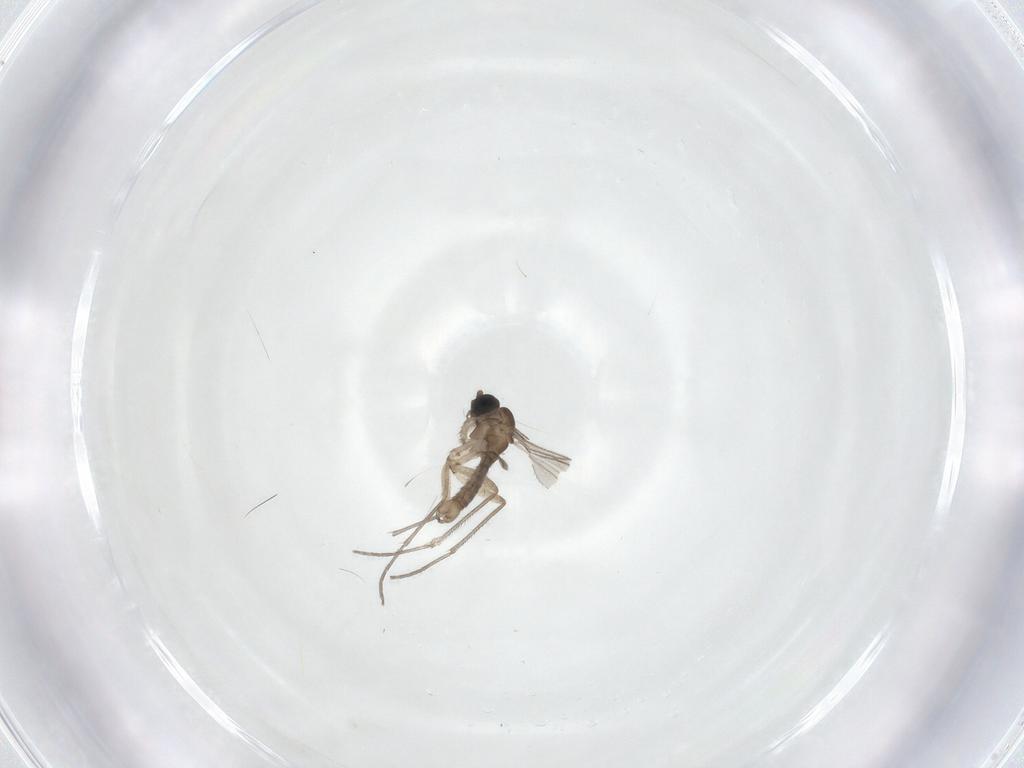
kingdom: Animalia
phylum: Arthropoda
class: Insecta
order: Diptera
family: Sciaridae
